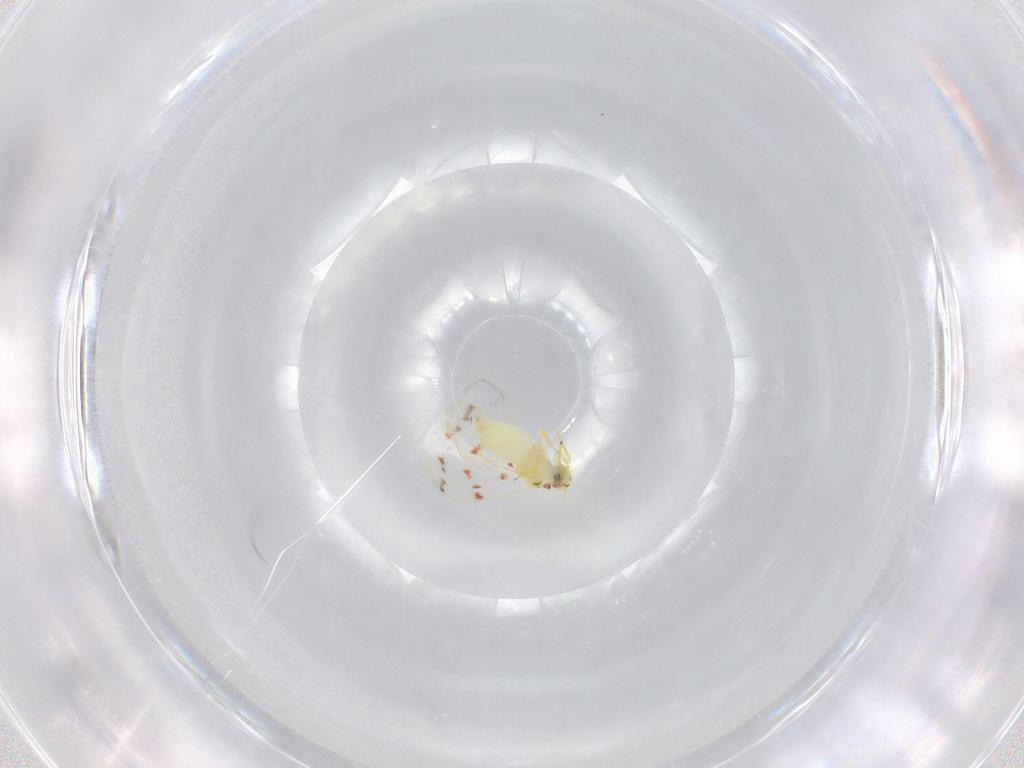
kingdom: Animalia
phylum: Arthropoda
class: Insecta
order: Hemiptera
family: Aleyrodidae
